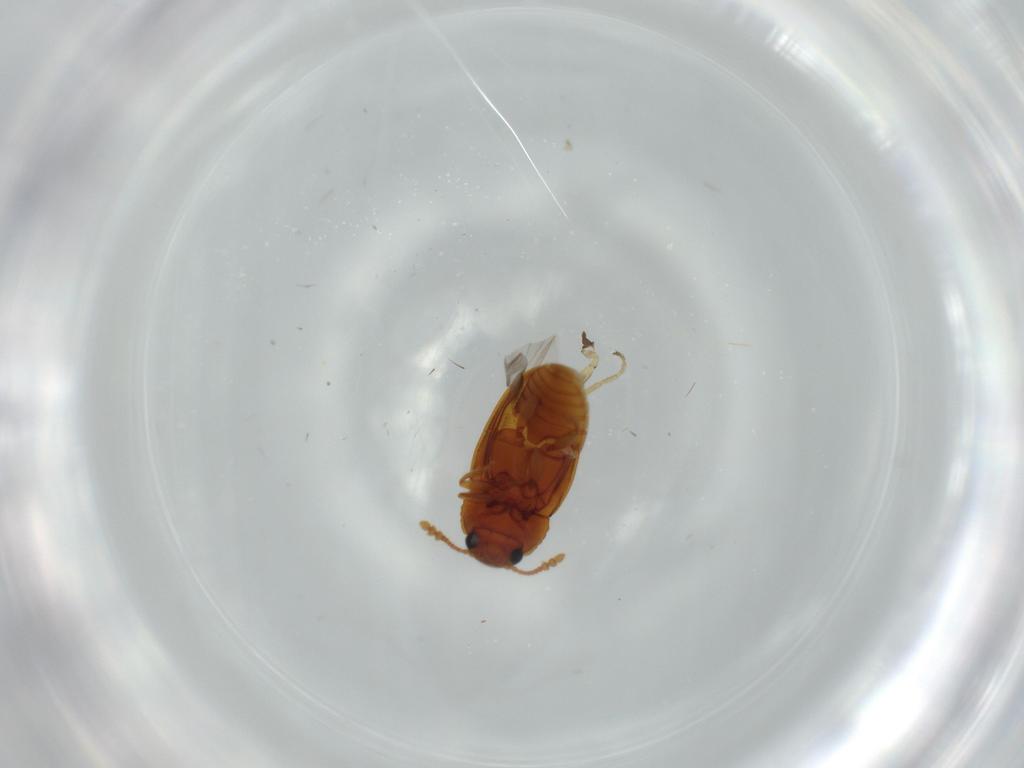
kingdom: Animalia
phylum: Arthropoda
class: Insecta
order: Coleoptera
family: Erotylidae
